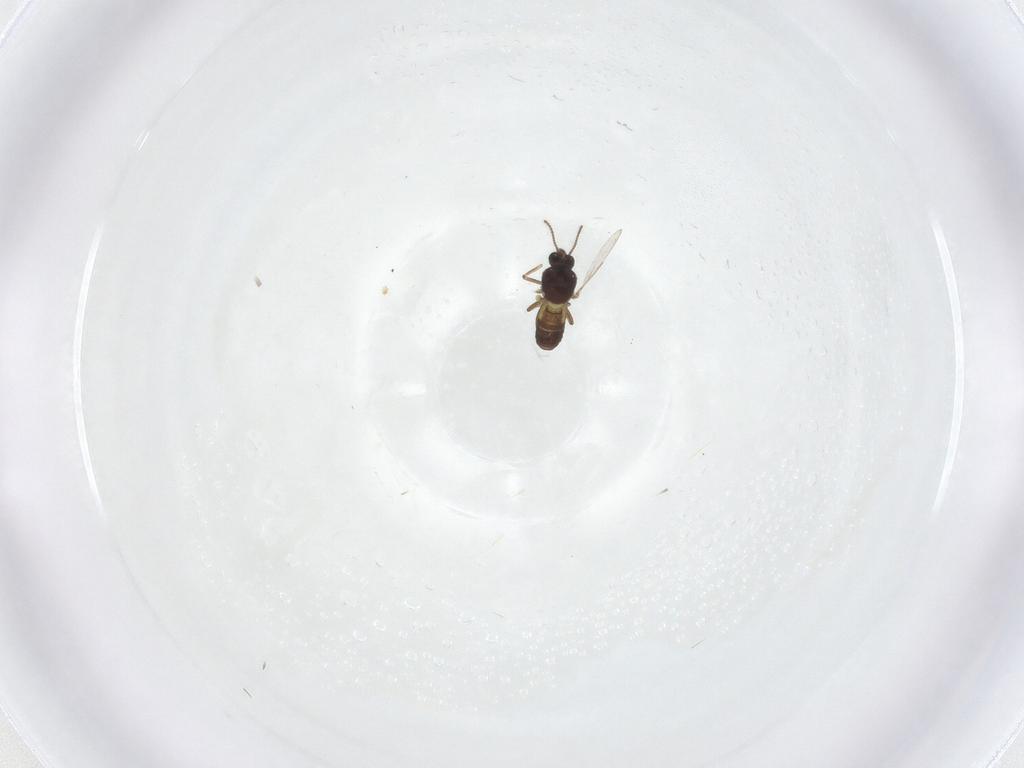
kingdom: Animalia
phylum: Arthropoda
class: Insecta
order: Diptera
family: Ceratopogonidae
